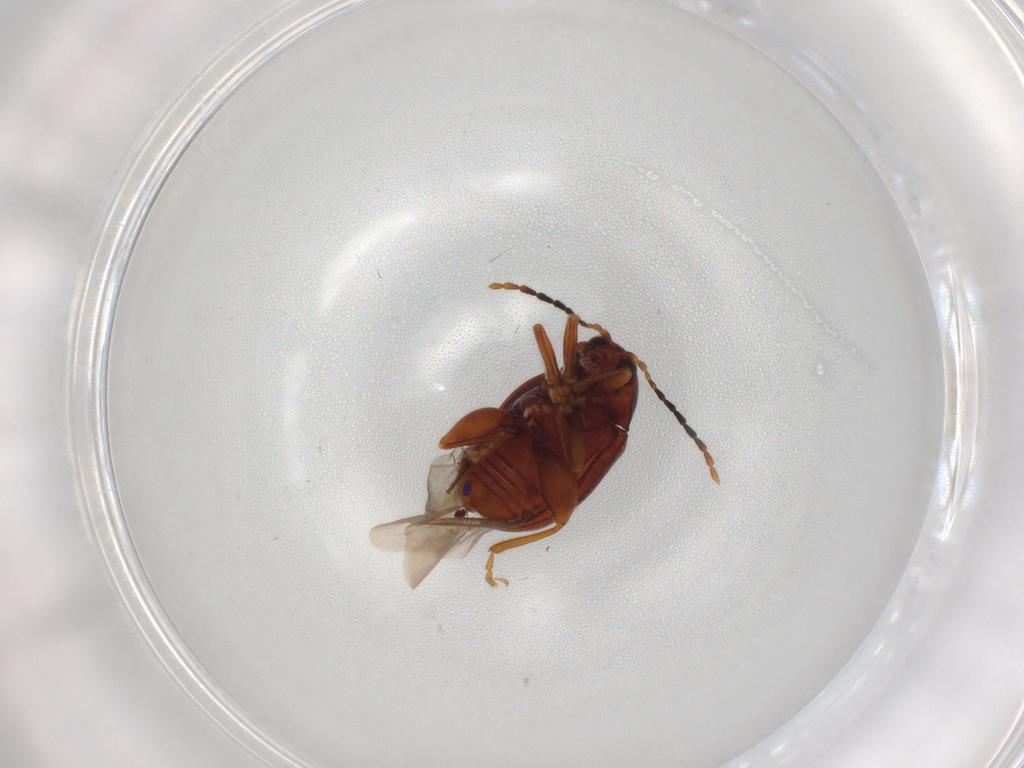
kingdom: Animalia
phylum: Arthropoda
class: Insecta
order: Coleoptera
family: Chrysomelidae
